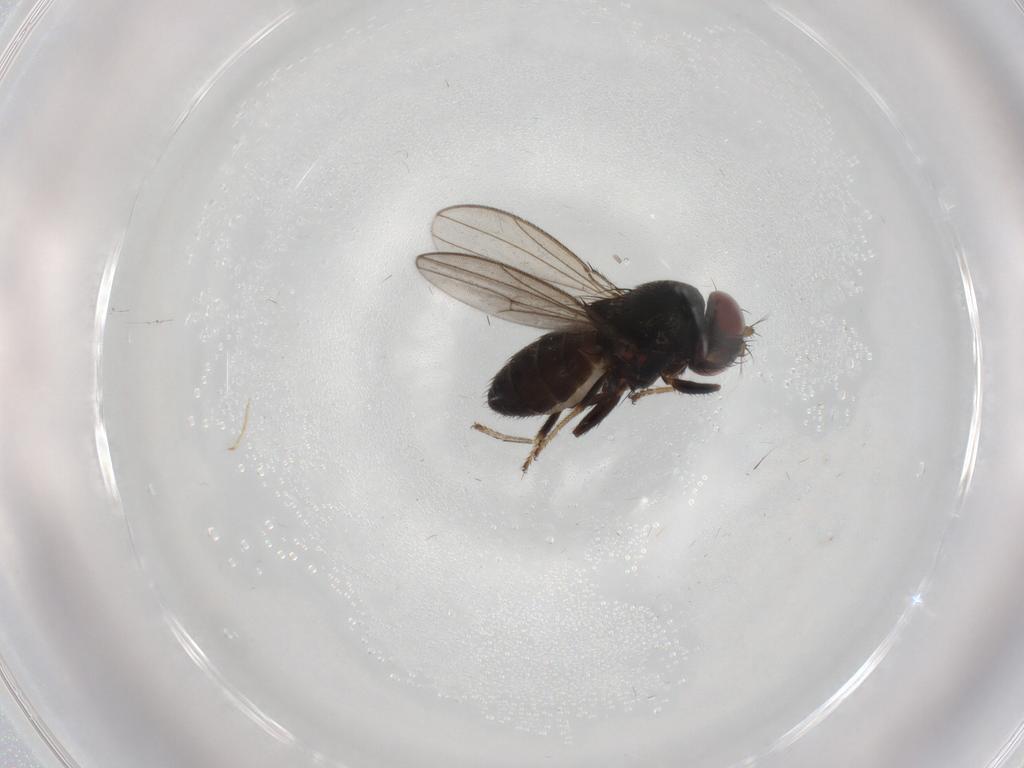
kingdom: Animalia
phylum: Arthropoda
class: Insecta
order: Diptera
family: Ephydridae
